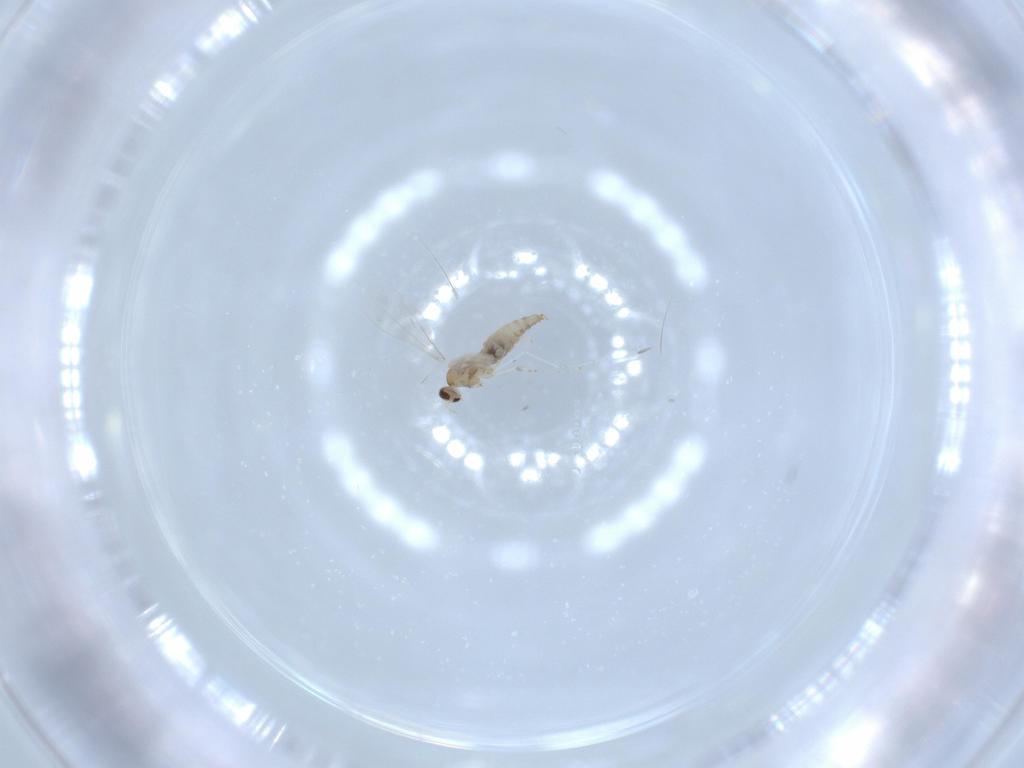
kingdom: Animalia
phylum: Arthropoda
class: Insecta
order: Diptera
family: Cecidomyiidae
